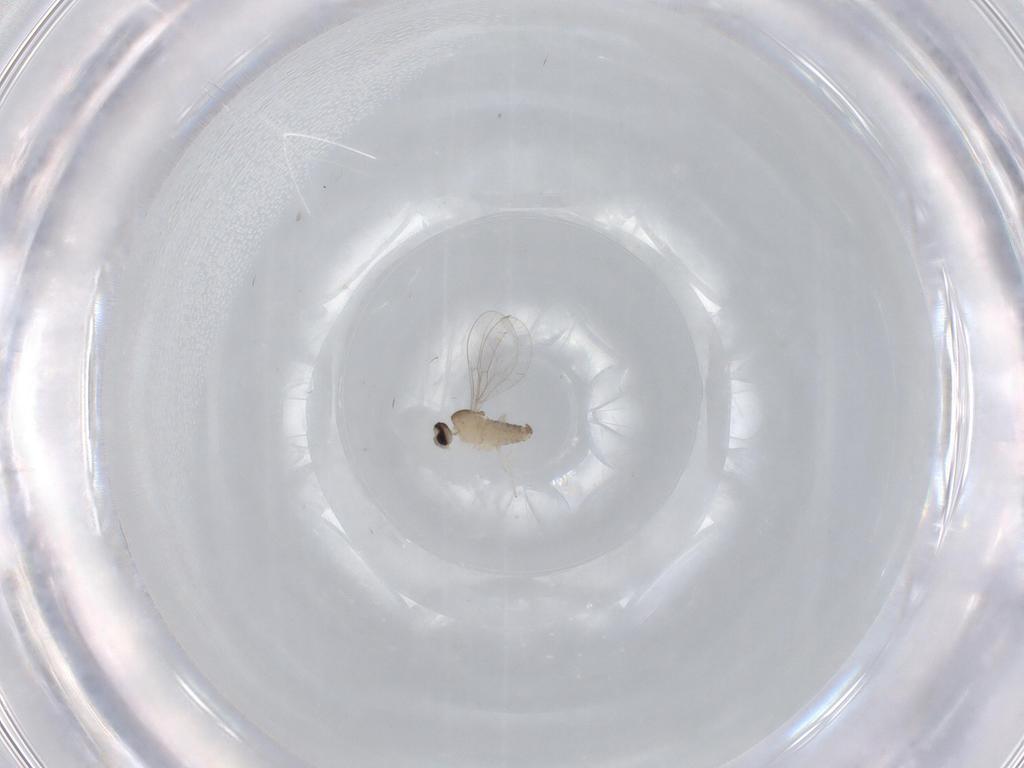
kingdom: Animalia
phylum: Arthropoda
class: Insecta
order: Diptera
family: Cecidomyiidae
